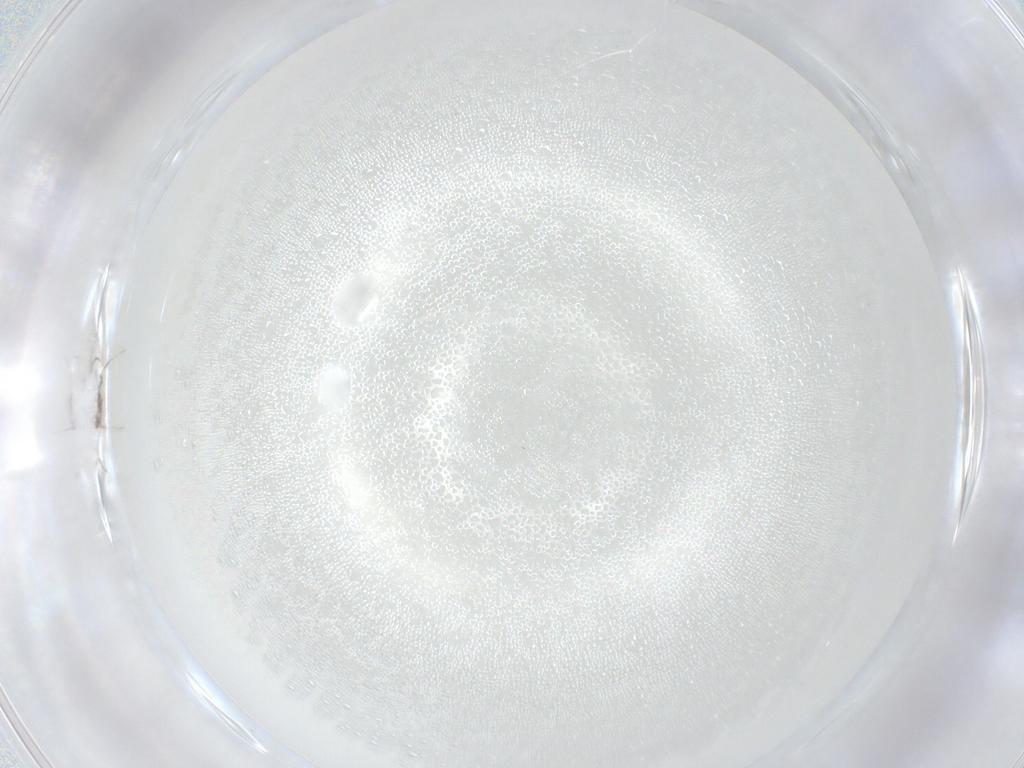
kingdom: Animalia
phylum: Arthropoda
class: Insecta
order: Hymenoptera
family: Mymaridae
